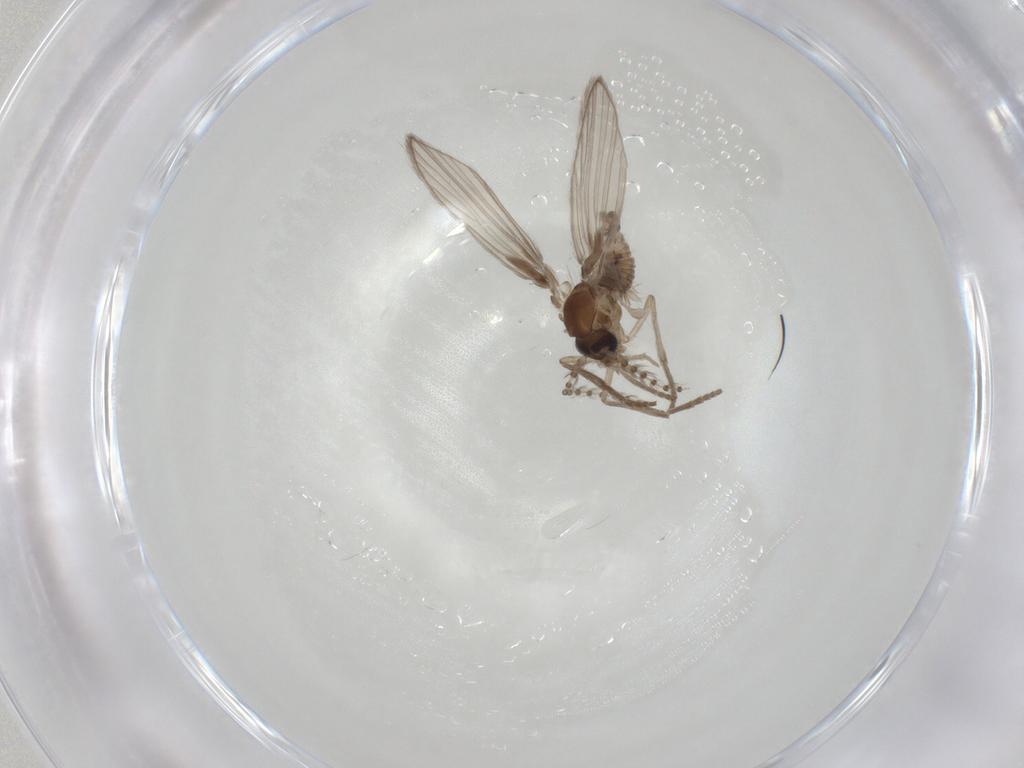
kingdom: Animalia
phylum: Arthropoda
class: Insecta
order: Diptera
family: Psychodidae
